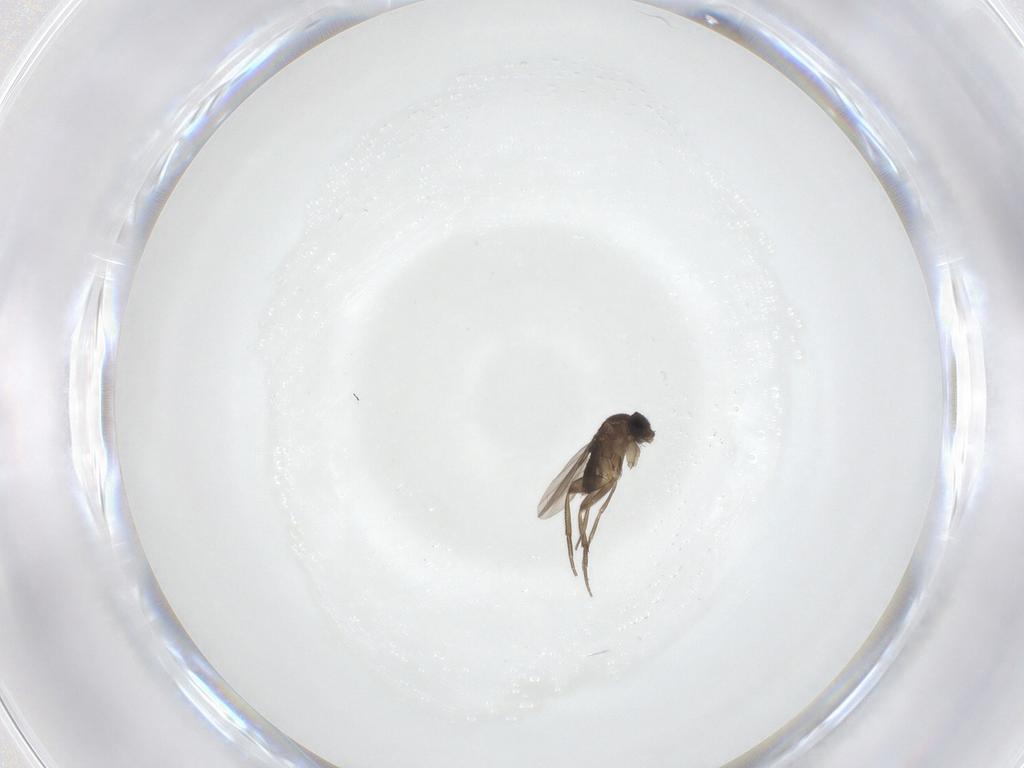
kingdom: Animalia
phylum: Arthropoda
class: Insecta
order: Diptera
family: Phoridae
